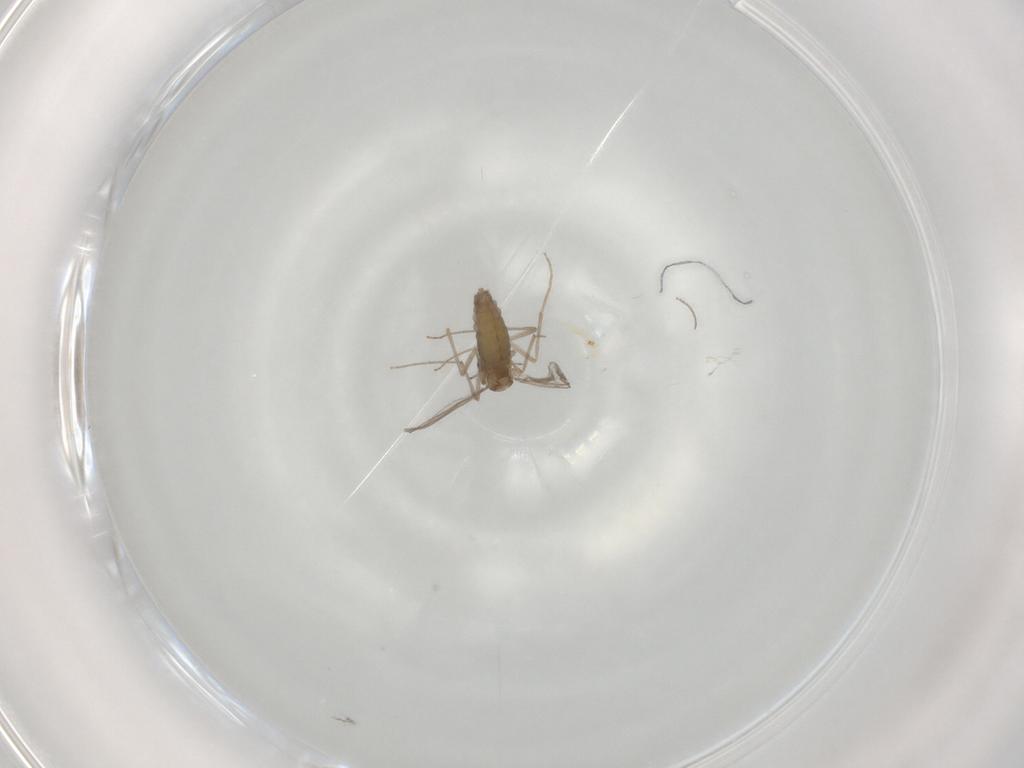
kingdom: Animalia
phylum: Arthropoda
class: Insecta
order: Diptera
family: Chironomidae
